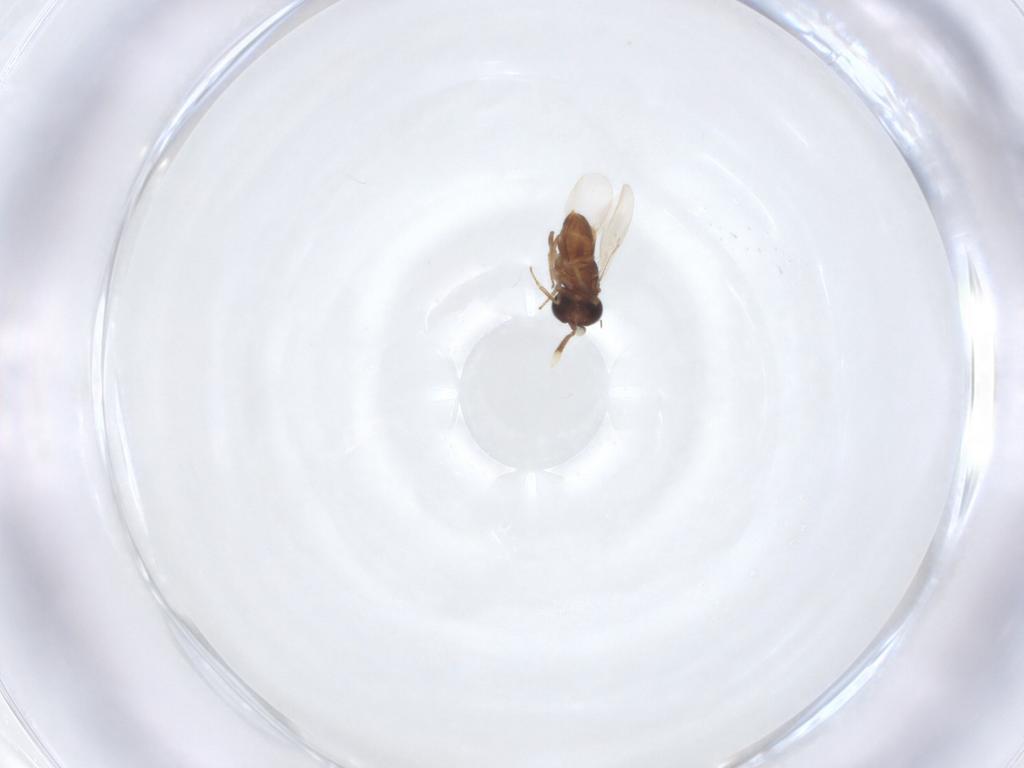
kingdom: Animalia
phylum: Arthropoda
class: Insecta
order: Hemiptera
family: Aphididae
